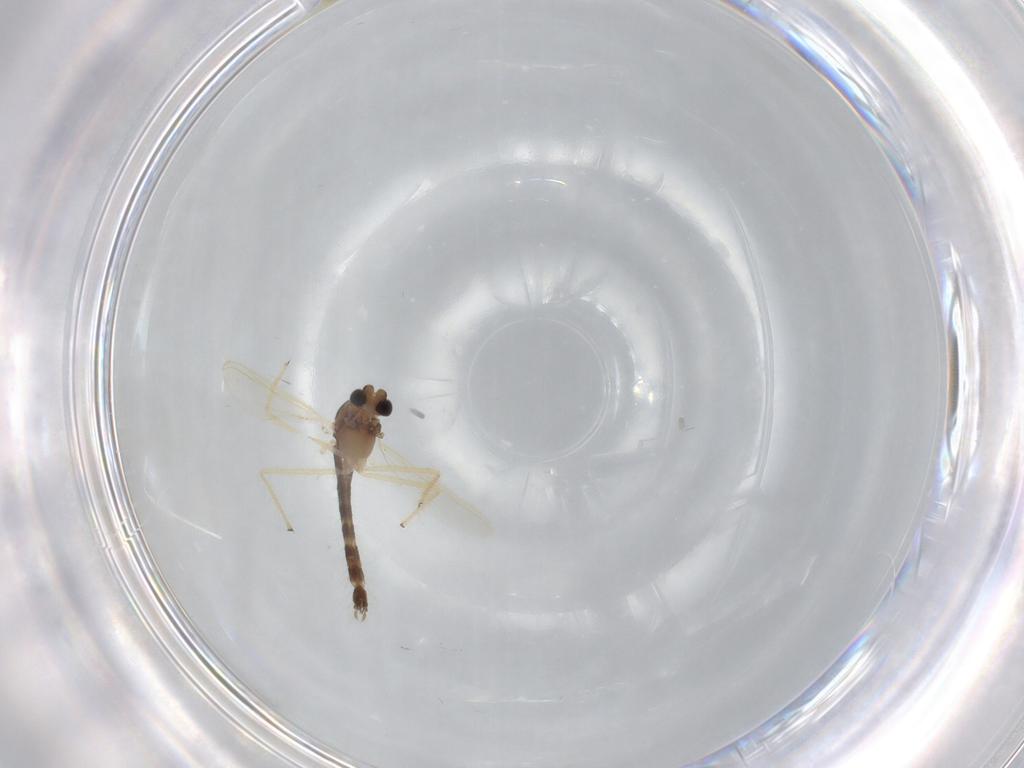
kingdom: Animalia
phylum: Arthropoda
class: Insecta
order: Diptera
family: Chironomidae
